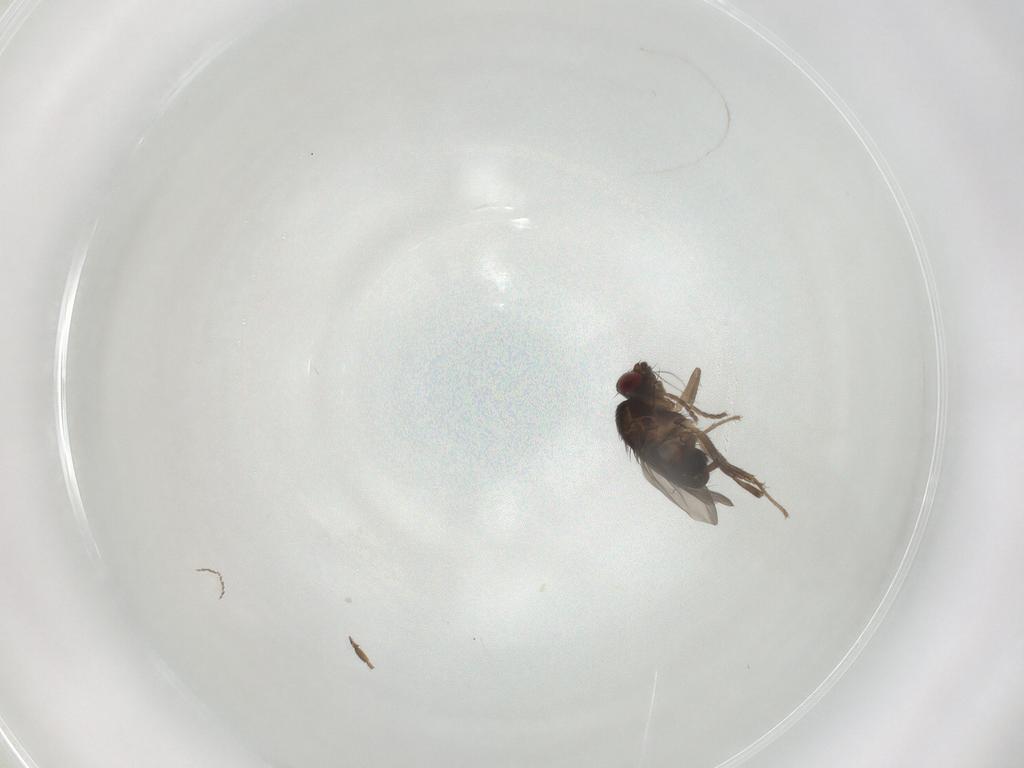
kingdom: Animalia
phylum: Arthropoda
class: Insecta
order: Diptera
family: Sphaeroceridae
